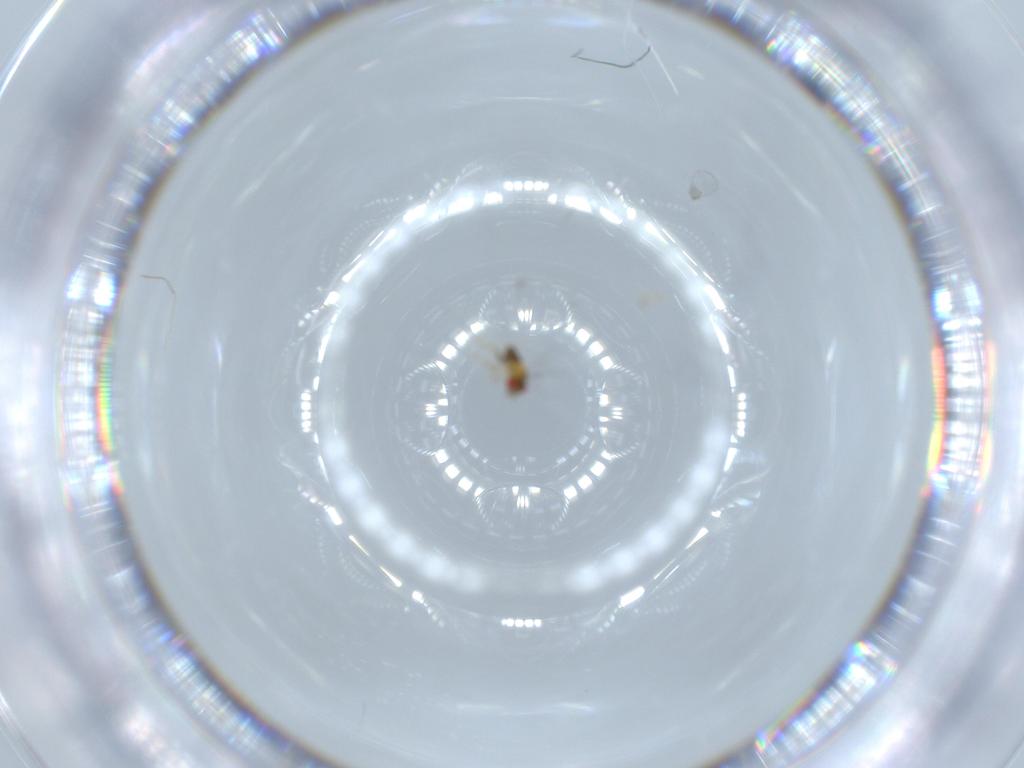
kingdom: Animalia
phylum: Arthropoda
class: Insecta
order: Hymenoptera
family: Trichogrammatidae
